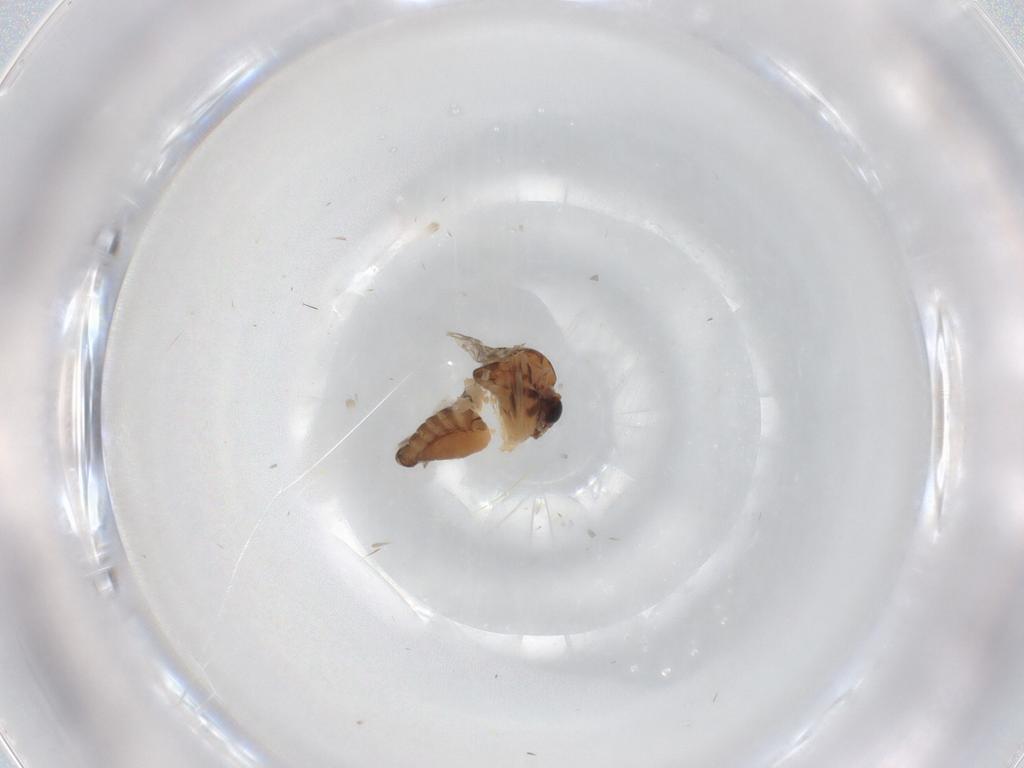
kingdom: Animalia
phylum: Arthropoda
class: Insecta
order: Diptera
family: Chironomidae
